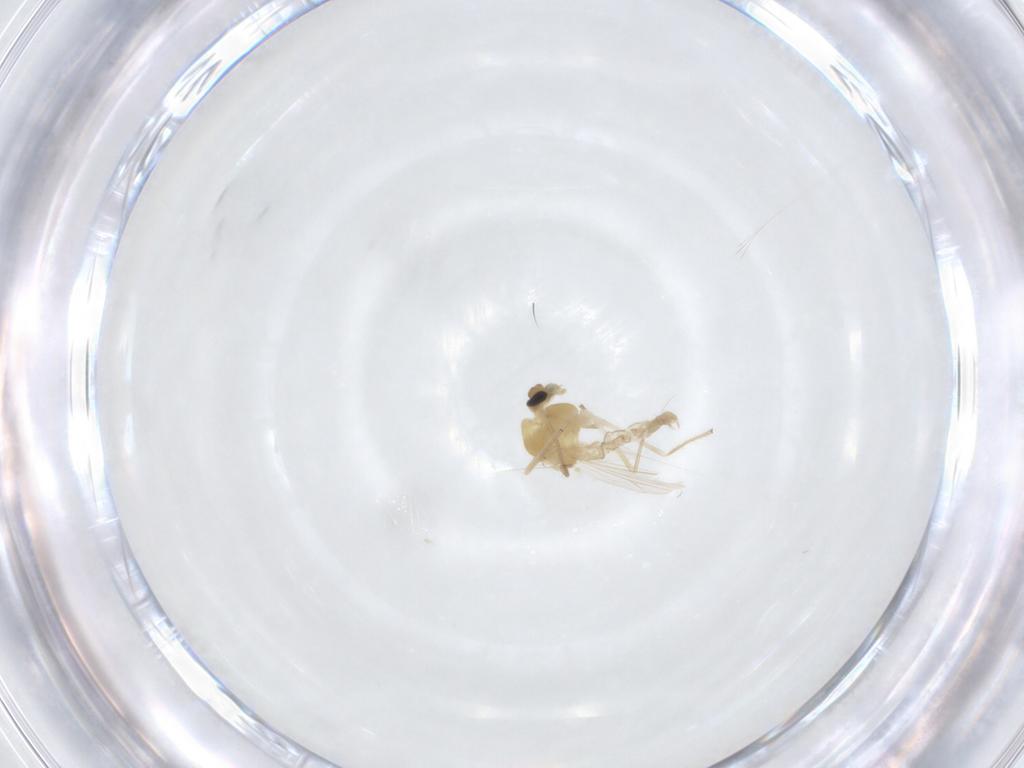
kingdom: Animalia
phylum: Arthropoda
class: Insecta
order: Diptera
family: Chironomidae
